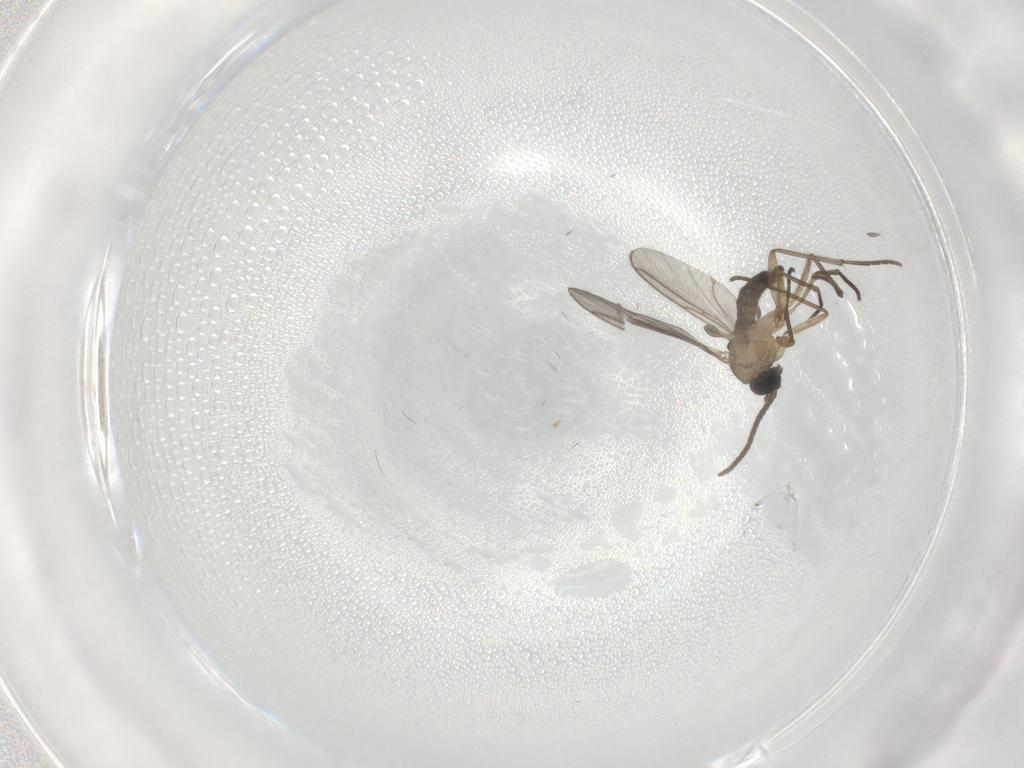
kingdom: Animalia
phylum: Arthropoda
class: Insecta
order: Diptera
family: Sciaridae
